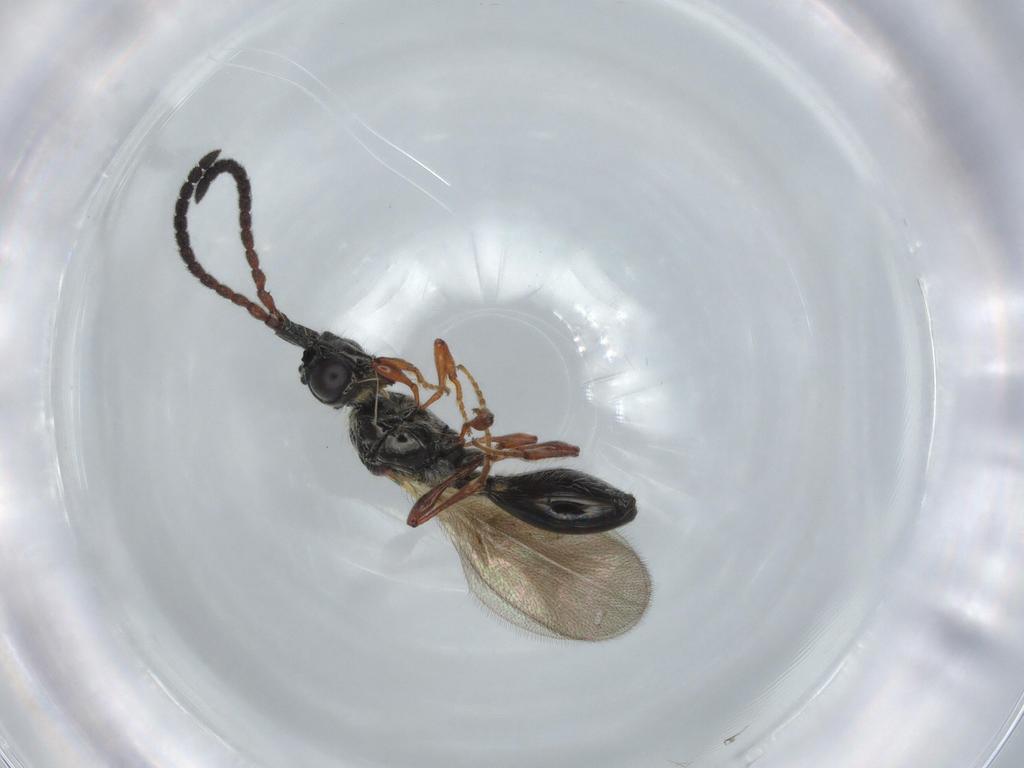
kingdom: Animalia
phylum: Arthropoda
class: Insecta
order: Hymenoptera
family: Diapriidae
